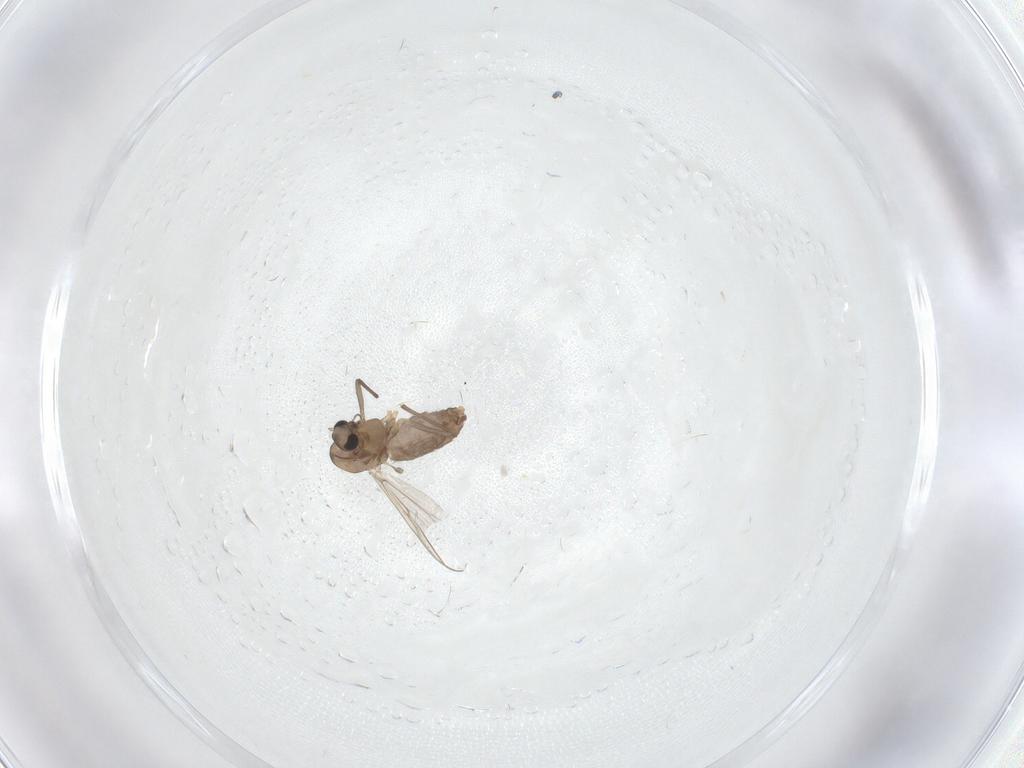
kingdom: Animalia
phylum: Arthropoda
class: Insecta
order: Diptera
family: Chironomidae
